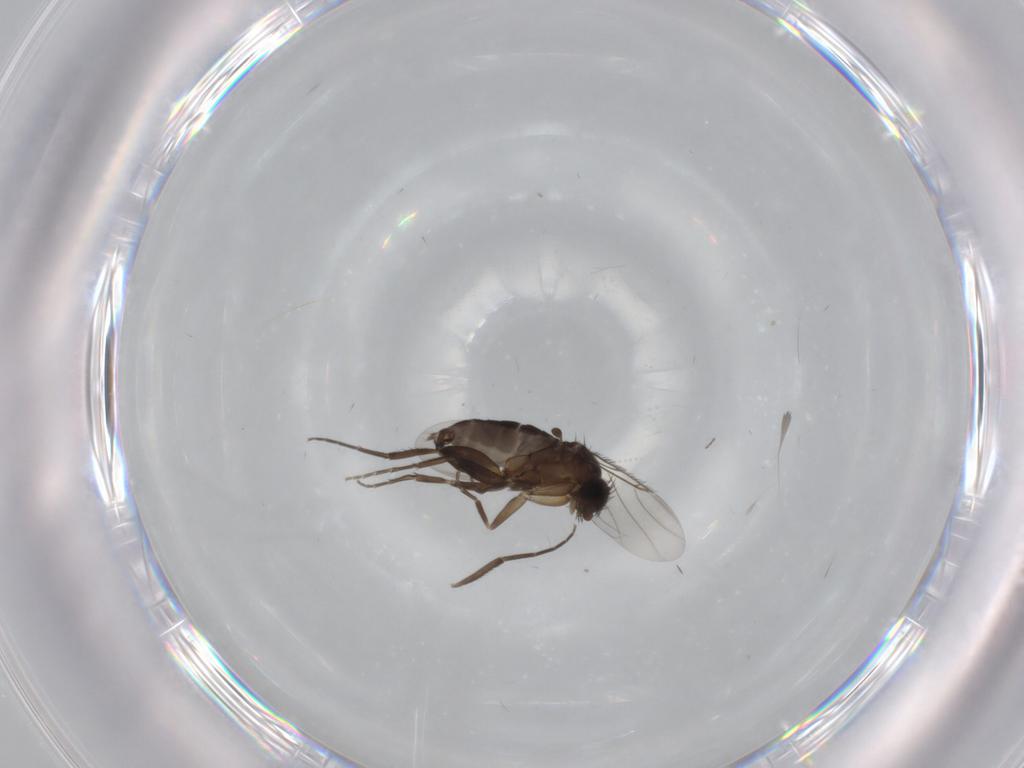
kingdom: Animalia
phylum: Arthropoda
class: Insecta
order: Diptera
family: Phoridae
